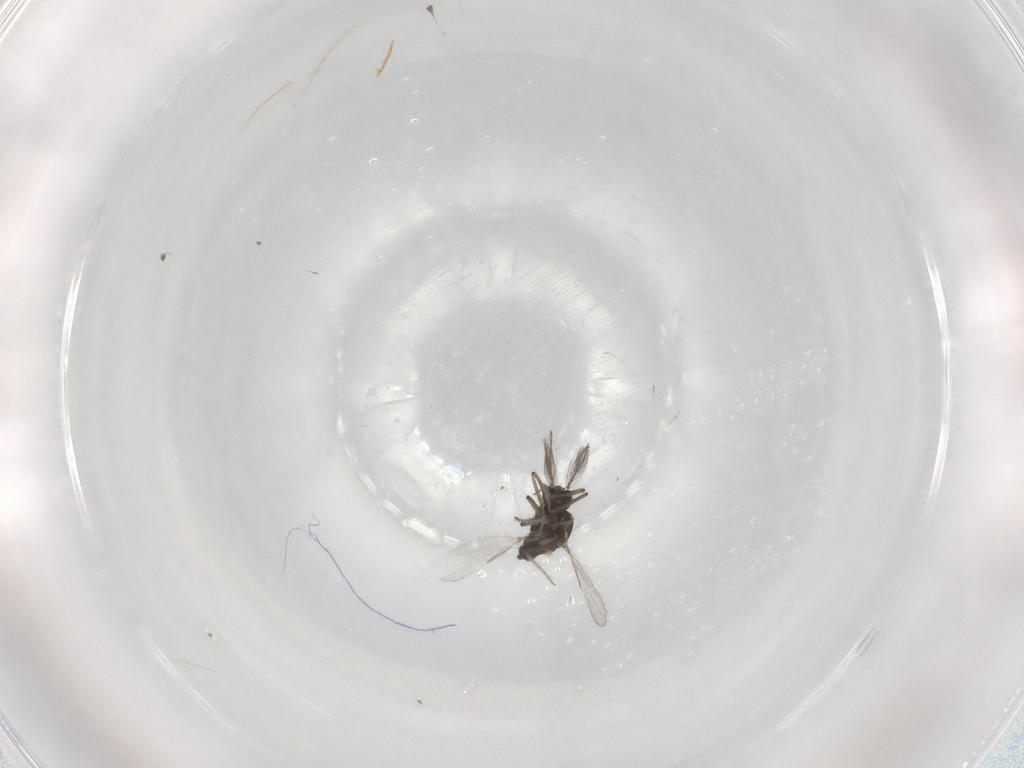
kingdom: Animalia
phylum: Arthropoda
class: Insecta
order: Diptera
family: Ceratopogonidae
